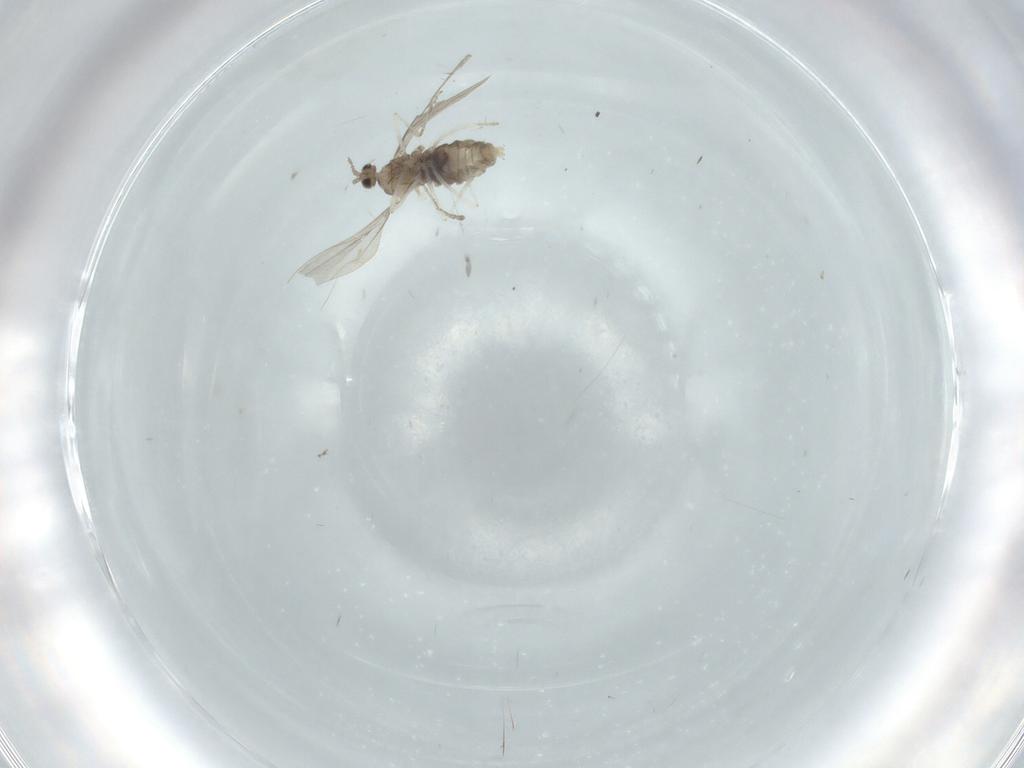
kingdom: Animalia
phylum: Arthropoda
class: Insecta
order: Diptera
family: Cecidomyiidae
